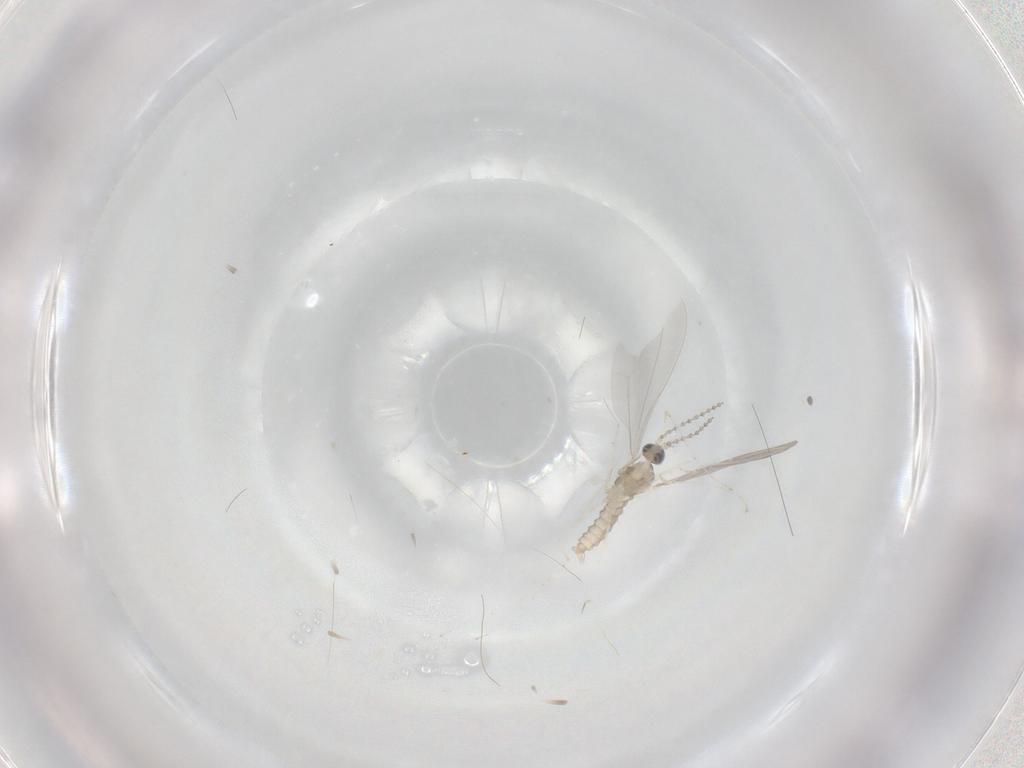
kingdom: Animalia
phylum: Arthropoda
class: Insecta
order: Diptera
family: Cecidomyiidae
